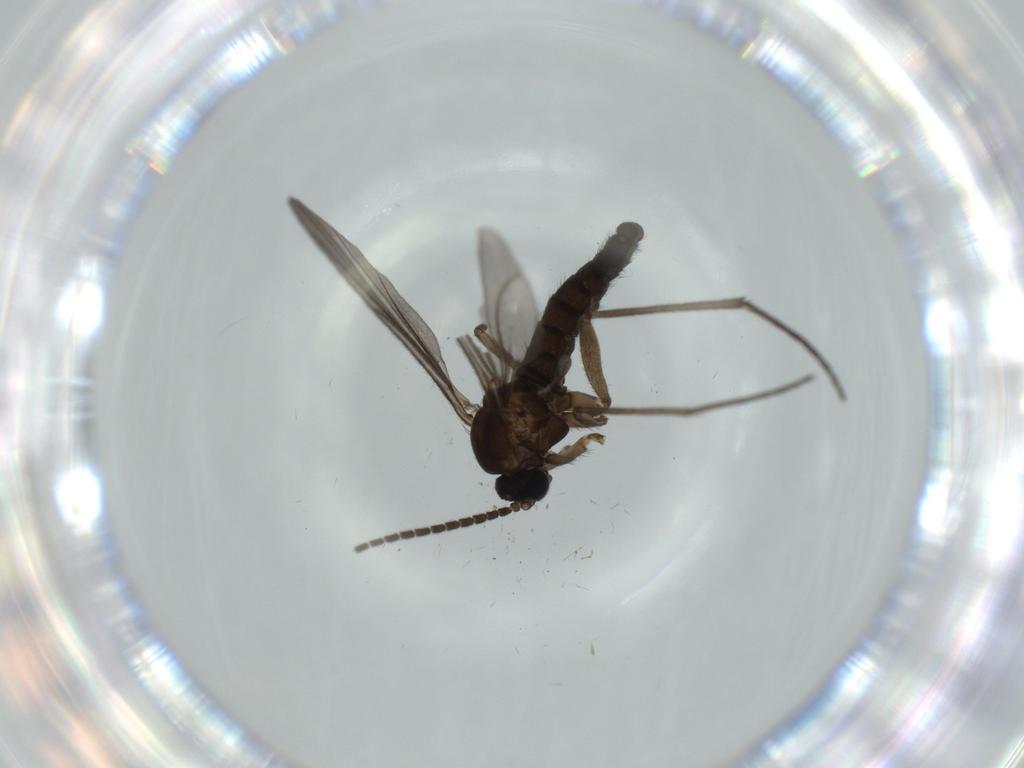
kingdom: Animalia
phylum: Arthropoda
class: Insecta
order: Diptera
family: Sciaridae
